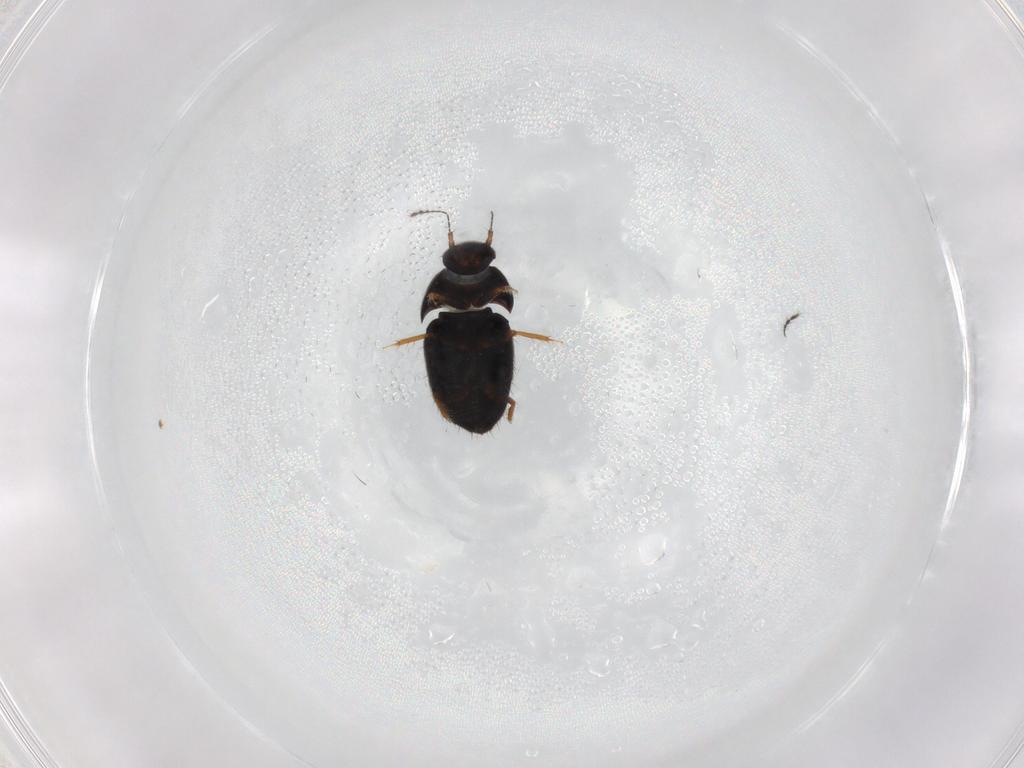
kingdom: Animalia
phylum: Arthropoda
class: Insecta
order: Coleoptera
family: Ptiliidae
